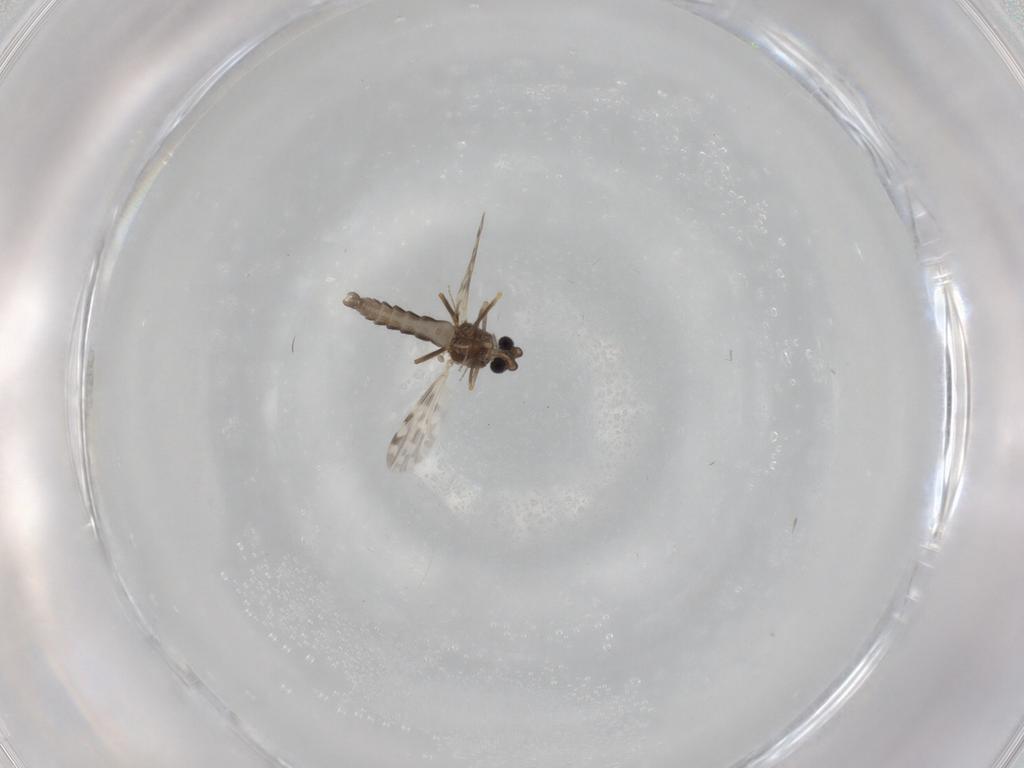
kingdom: Animalia
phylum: Arthropoda
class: Insecta
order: Diptera
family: Ceratopogonidae
